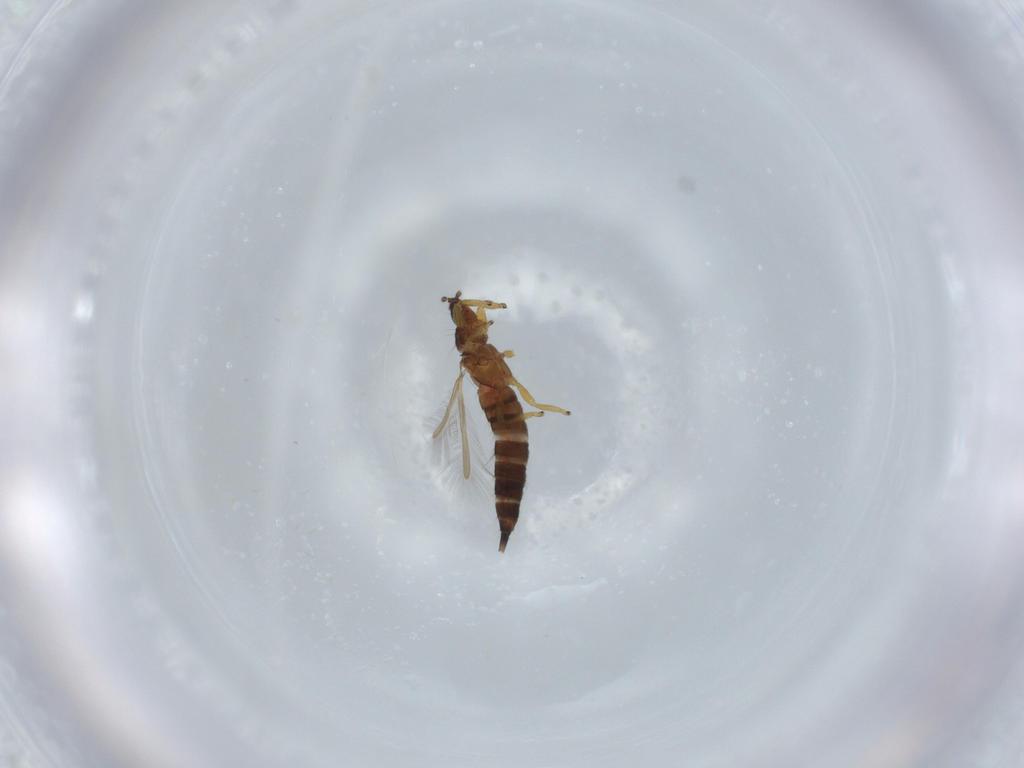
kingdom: Animalia
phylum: Arthropoda
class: Insecta
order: Thysanoptera
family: Phlaeothripidae
